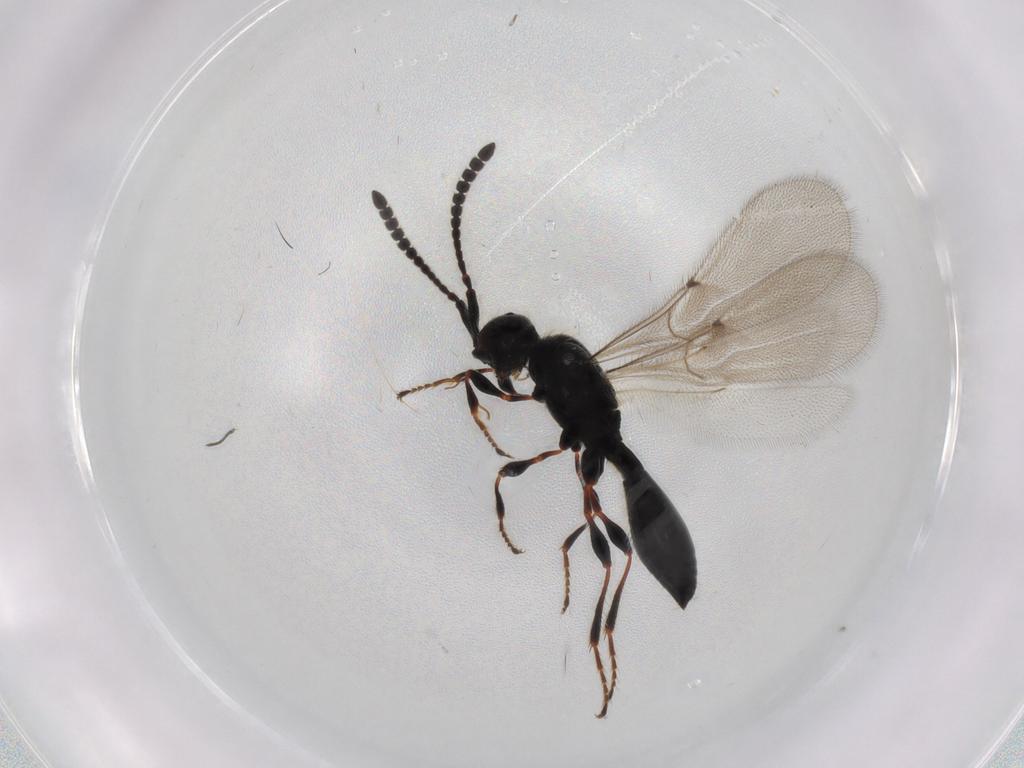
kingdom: Animalia
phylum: Arthropoda
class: Insecta
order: Hymenoptera
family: Diapriidae
